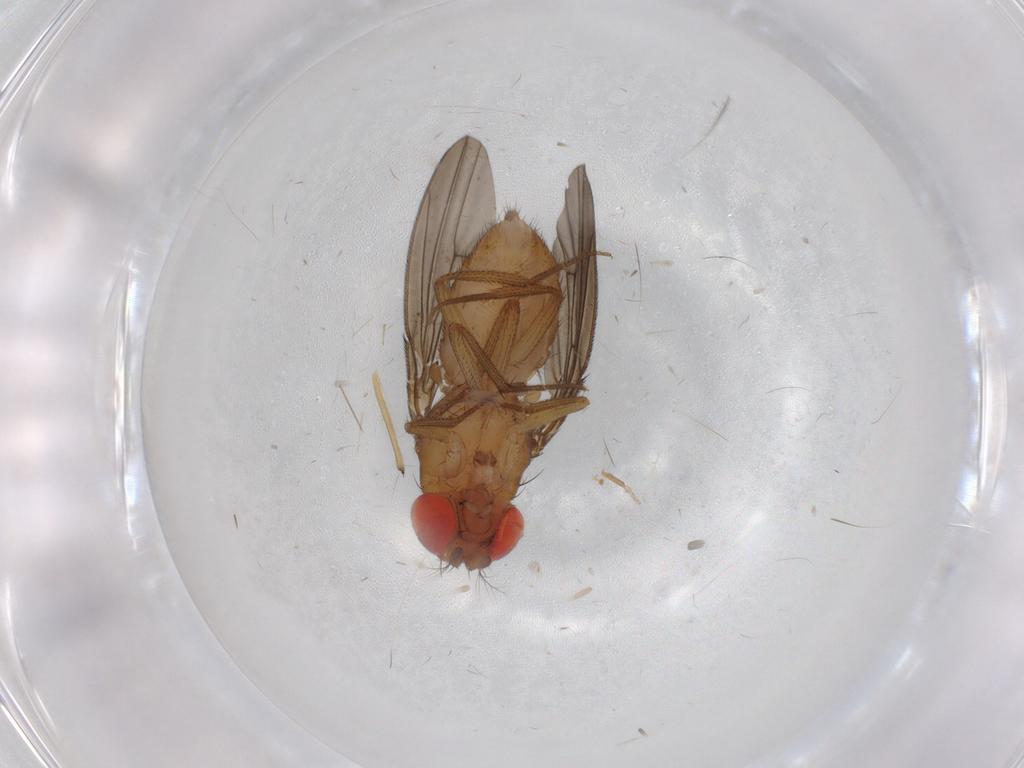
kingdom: Animalia
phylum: Arthropoda
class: Insecta
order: Diptera
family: Drosophilidae
